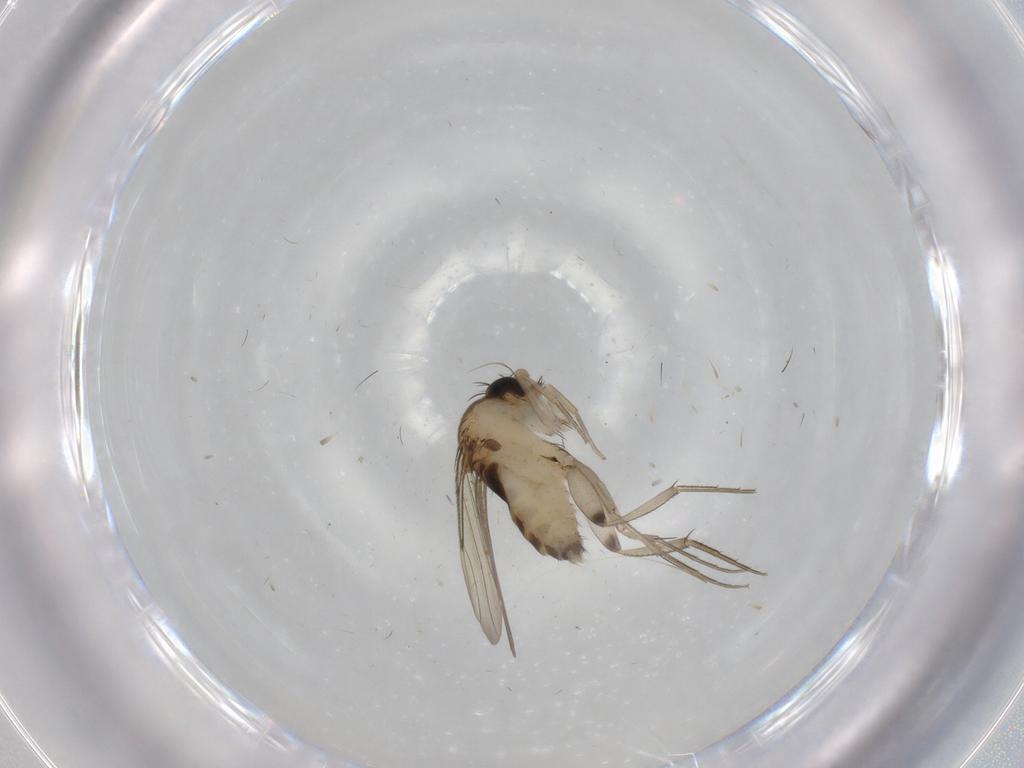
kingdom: Animalia
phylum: Arthropoda
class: Insecta
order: Diptera
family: Phoridae
